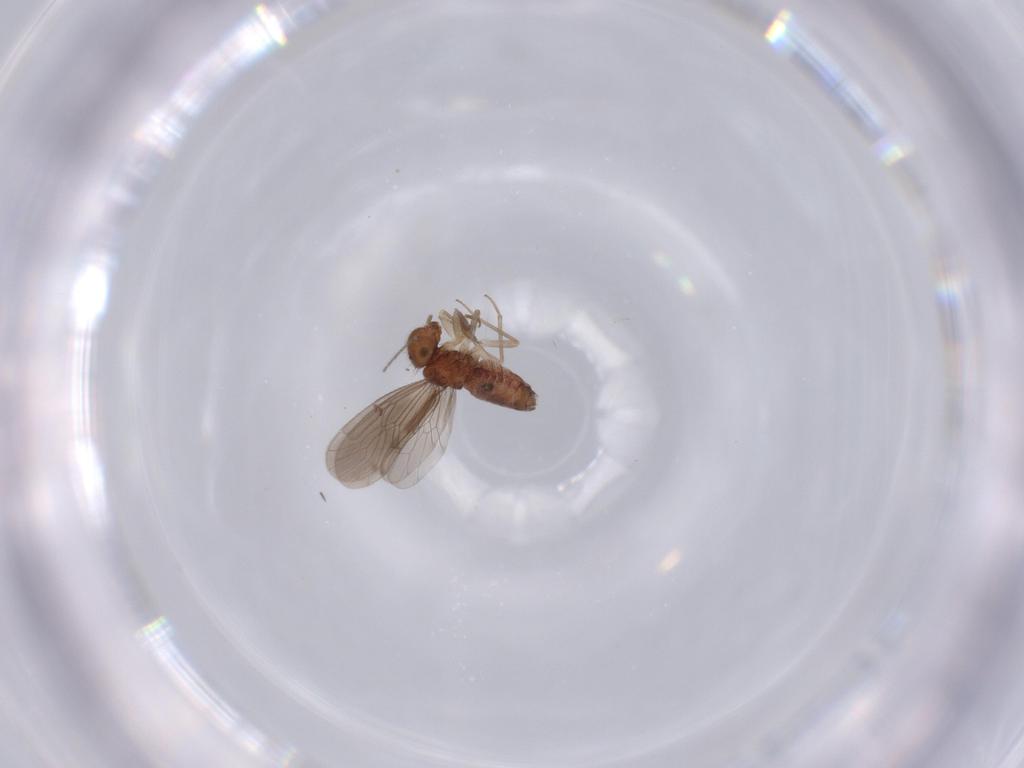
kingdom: Animalia
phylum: Arthropoda
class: Insecta
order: Psocodea
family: Ectopsocidae
